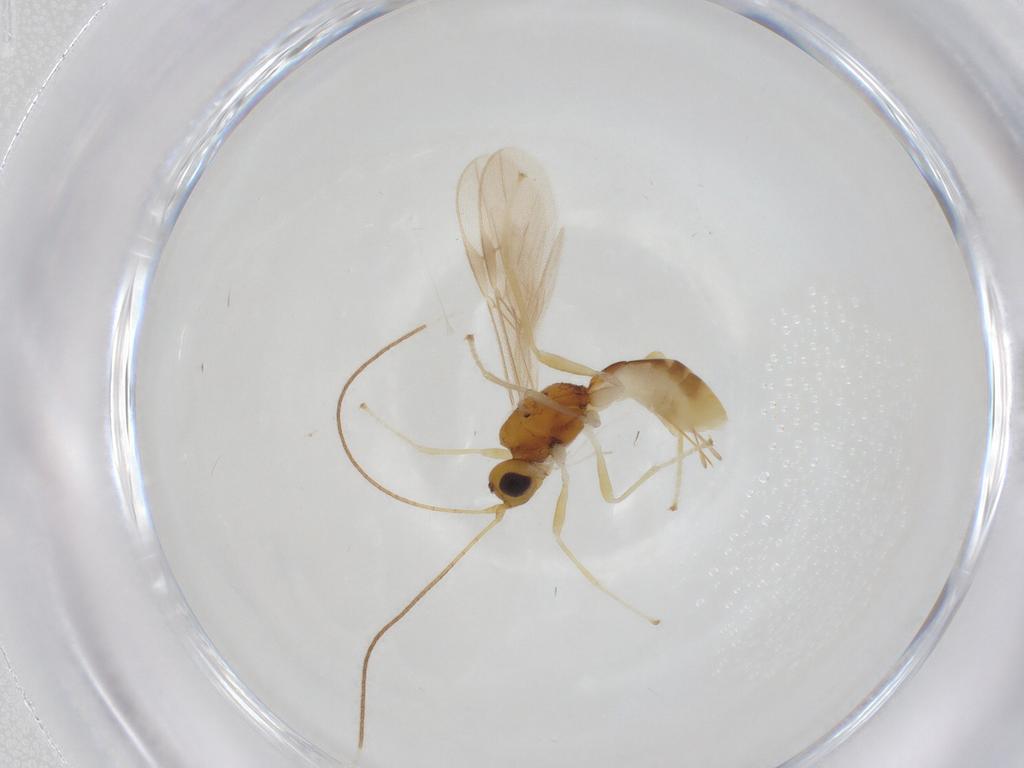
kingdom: Animalia
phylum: Arthropoda
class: Insecta
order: Hymenoptera
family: Braconidae
